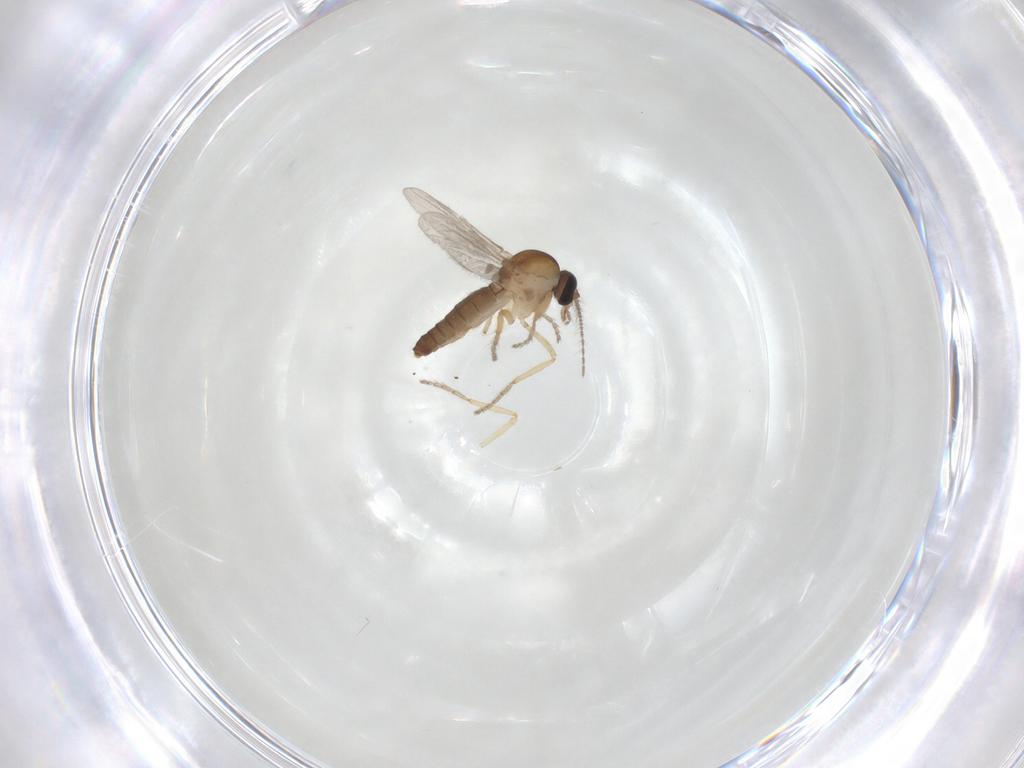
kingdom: Animalia
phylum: Arthropoda
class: Insecta
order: Diptera
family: Ceratopogonidae
